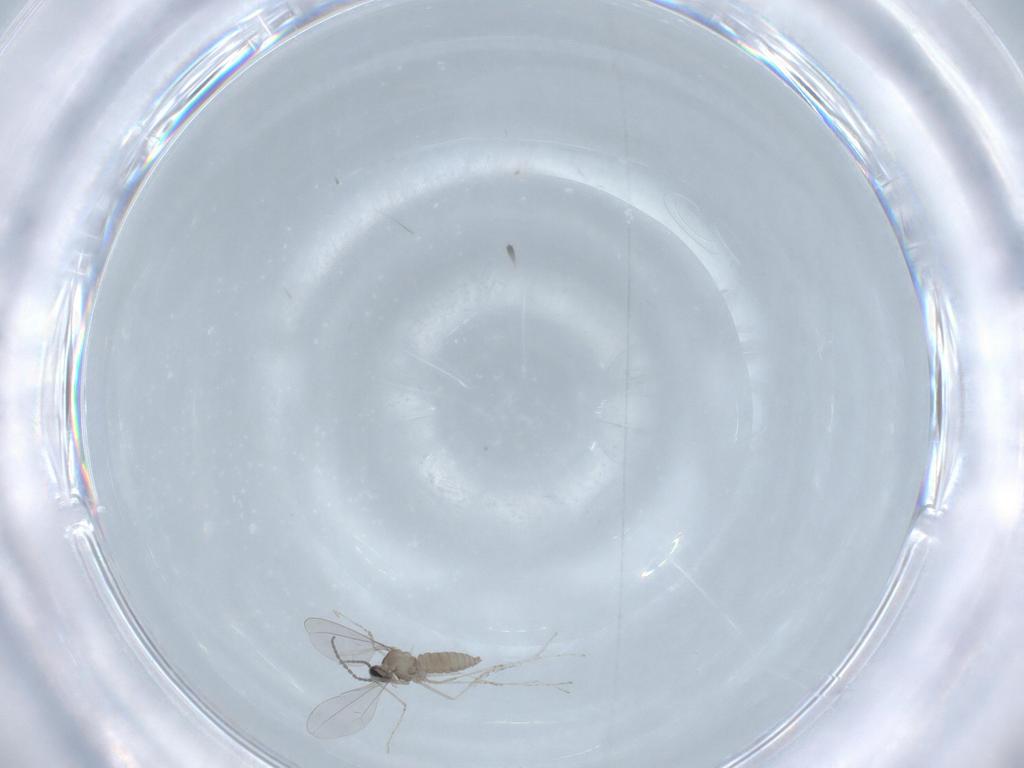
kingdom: Animalia
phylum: Arthropoda
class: Insecta
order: Diptera
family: Cecidomyiidae
